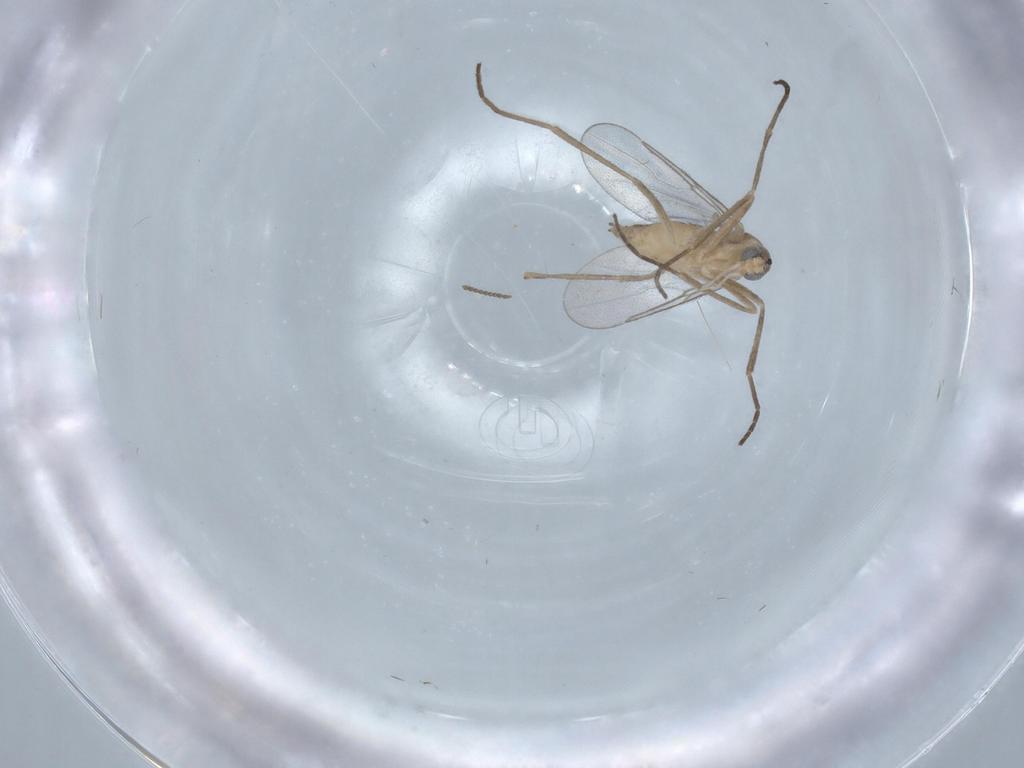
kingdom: Animalia
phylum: Arthropoda
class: Insecta
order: Diptera
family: Cecidomyiidae
